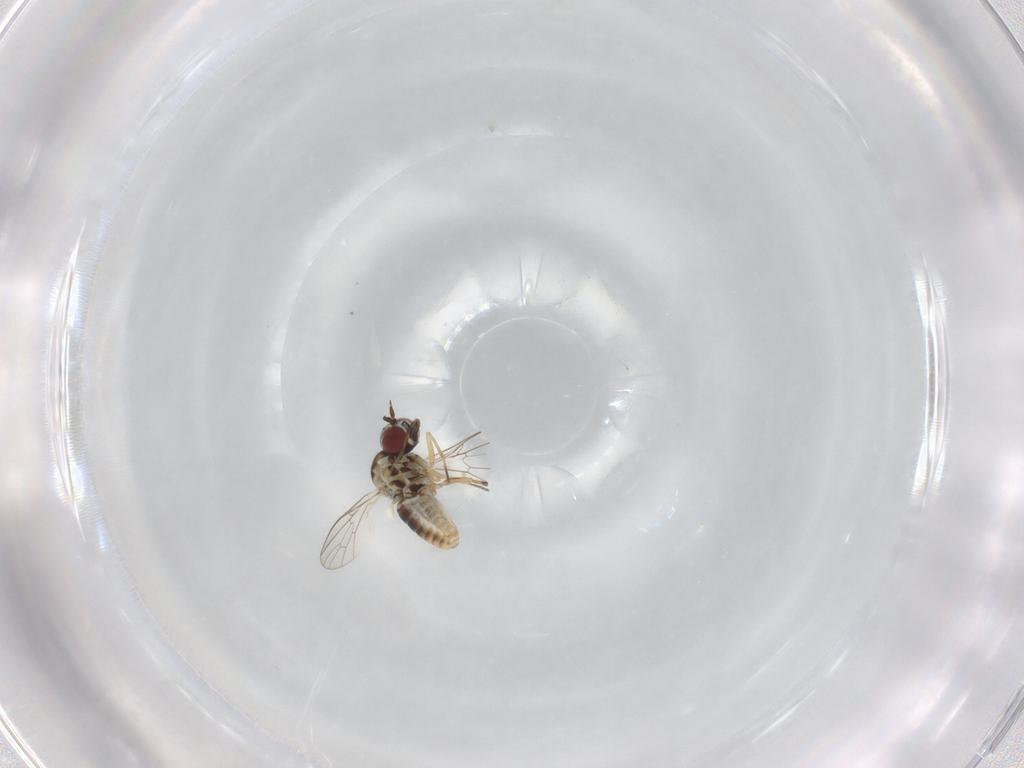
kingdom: Animalia
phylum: Arthropoda
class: Insecta
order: Diptera
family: Mythicomyiidae
